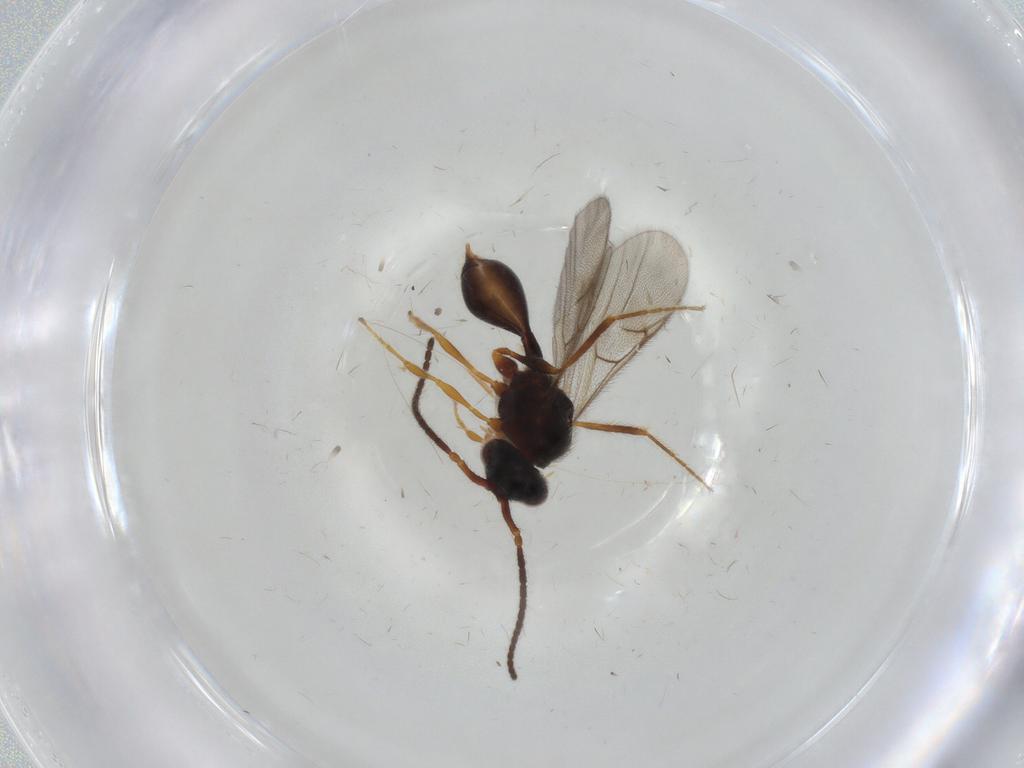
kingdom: Animalia
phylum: Arthropoda
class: Insecta
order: Hymenoptera
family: Diapriidae
